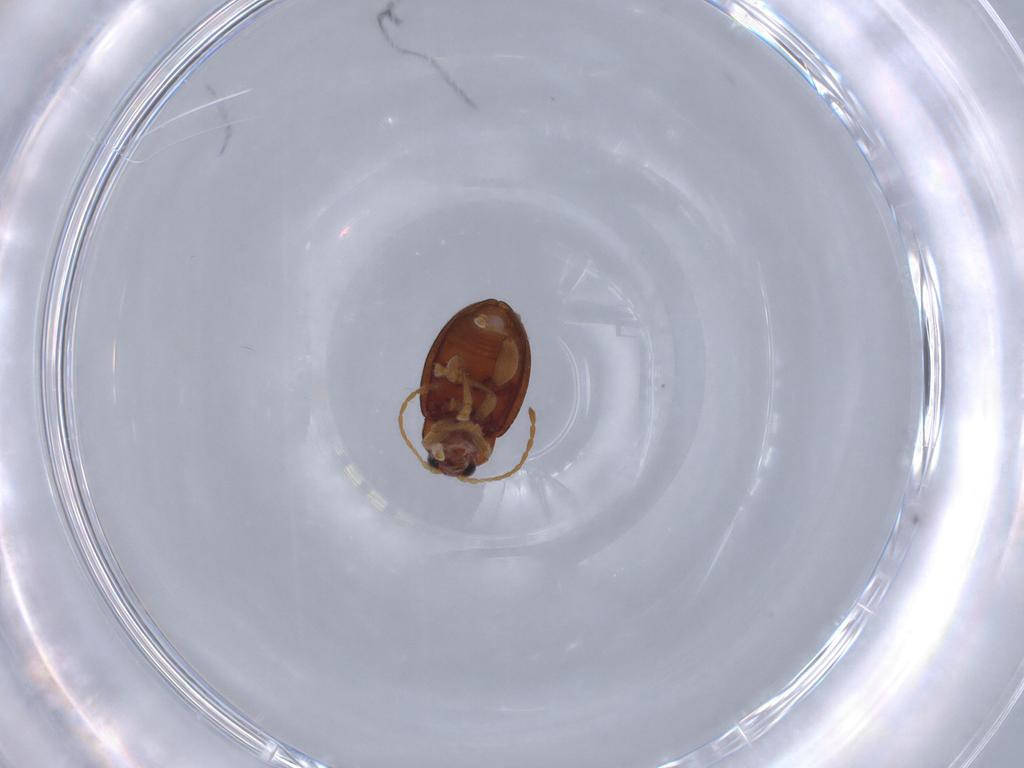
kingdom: Animalia
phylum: Arthropoda
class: Insecta
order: Coleoptera
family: Chrysomelidae
